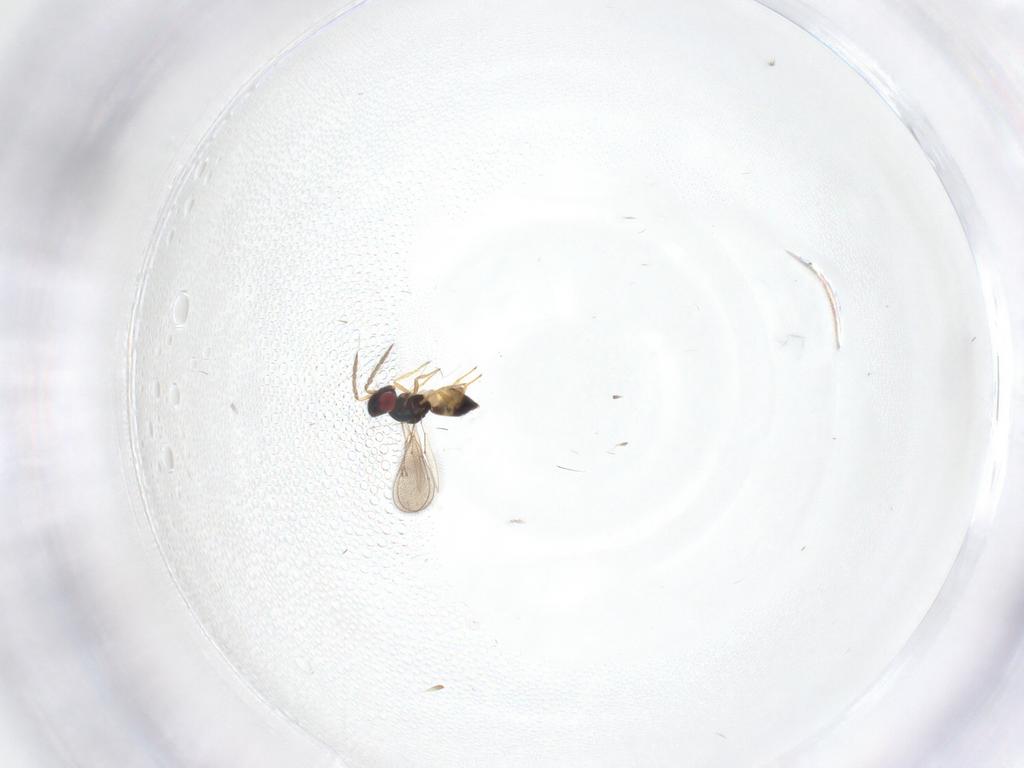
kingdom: Animalia
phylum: Arthropoda
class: Insecta
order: Hymenoptera
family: Eulophidae
